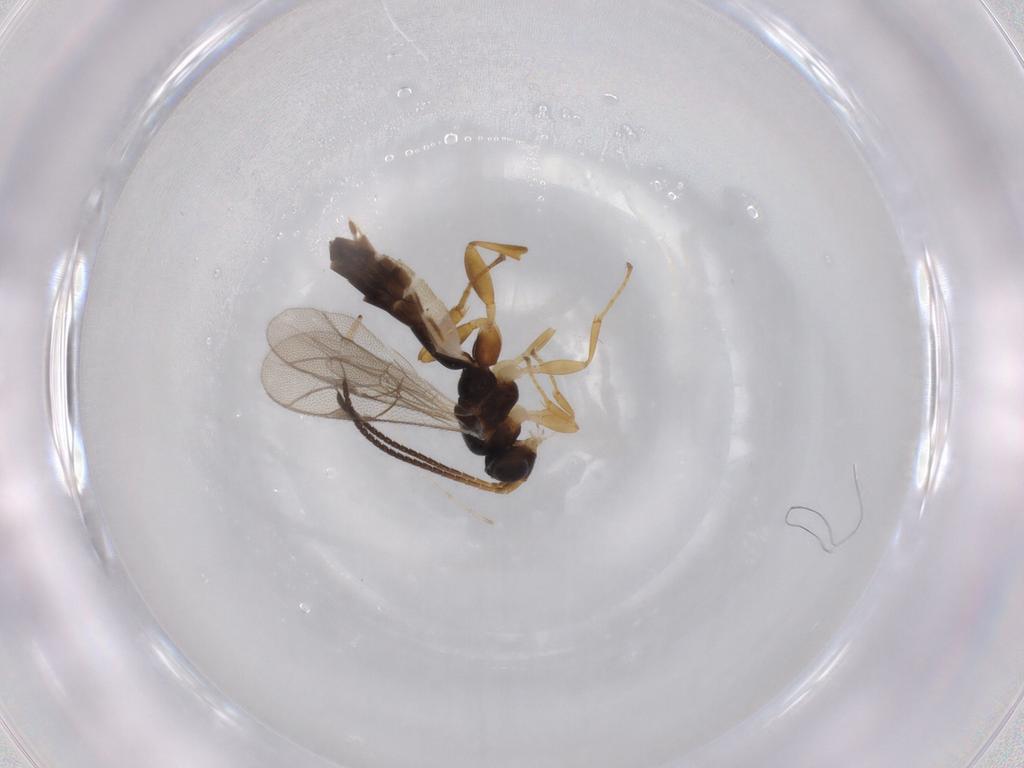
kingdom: Animalia
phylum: Arthropoda
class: Insecta
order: Hymenoptera
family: Ichneumonidae
